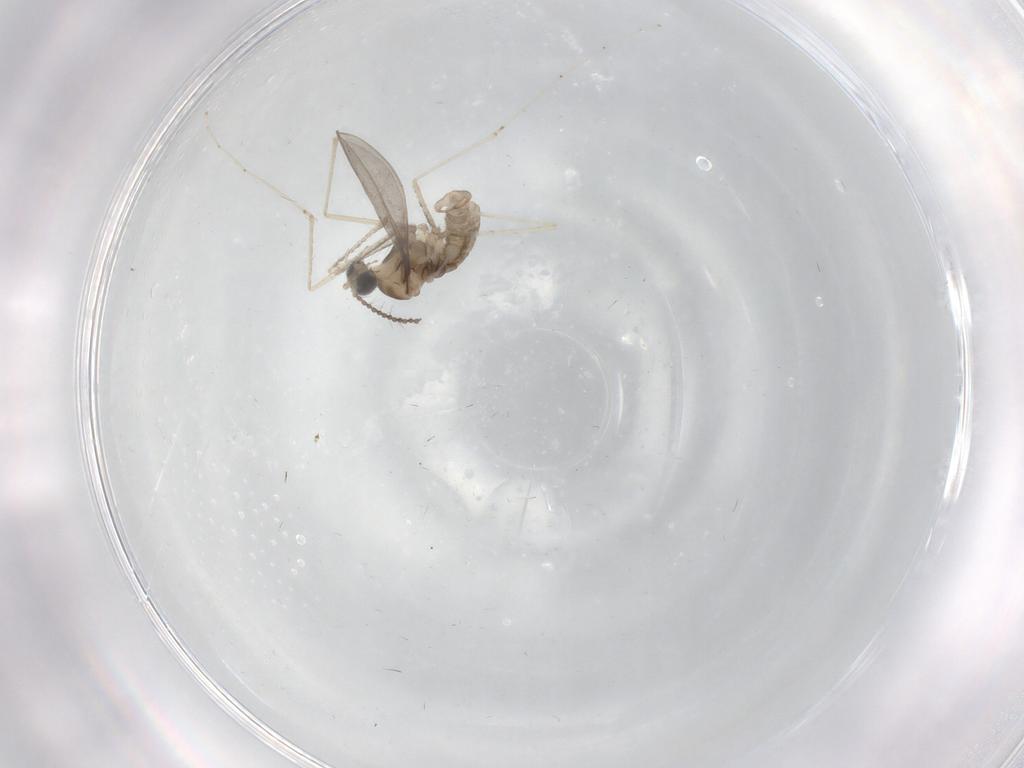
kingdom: Animalia
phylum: Arthropoda
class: Insecta
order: Diptera
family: Cecidomyiidae
